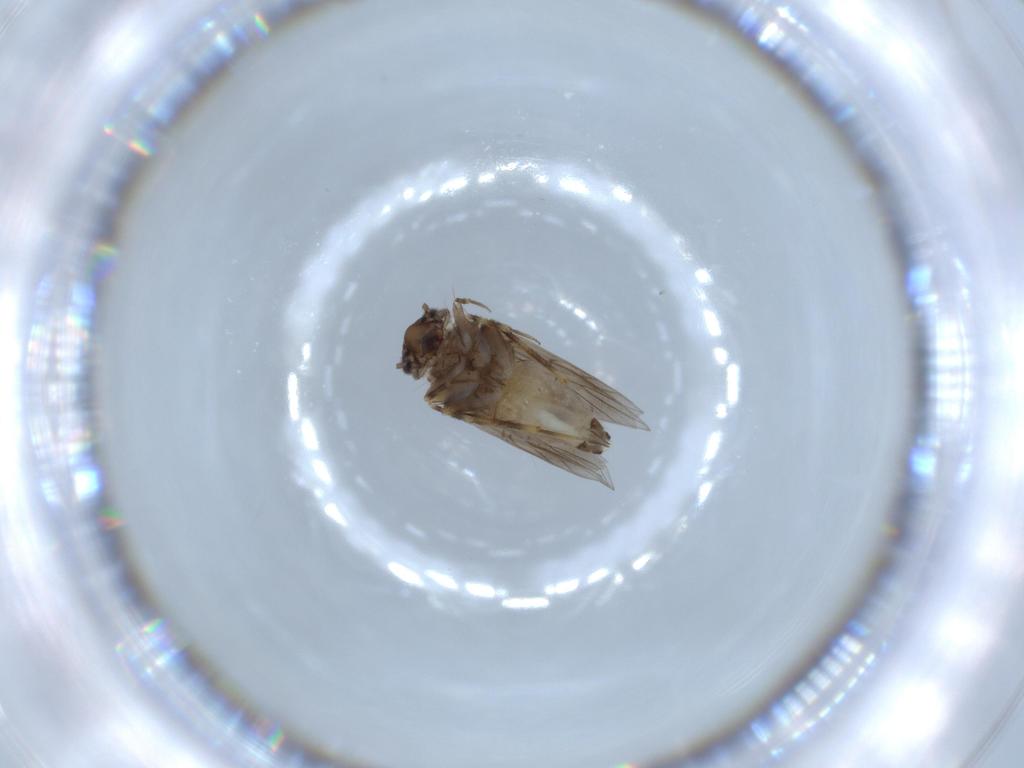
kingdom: Animalia
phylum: Arthropoda
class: Insecta
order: Psocodea
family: Lepidopsocidae
